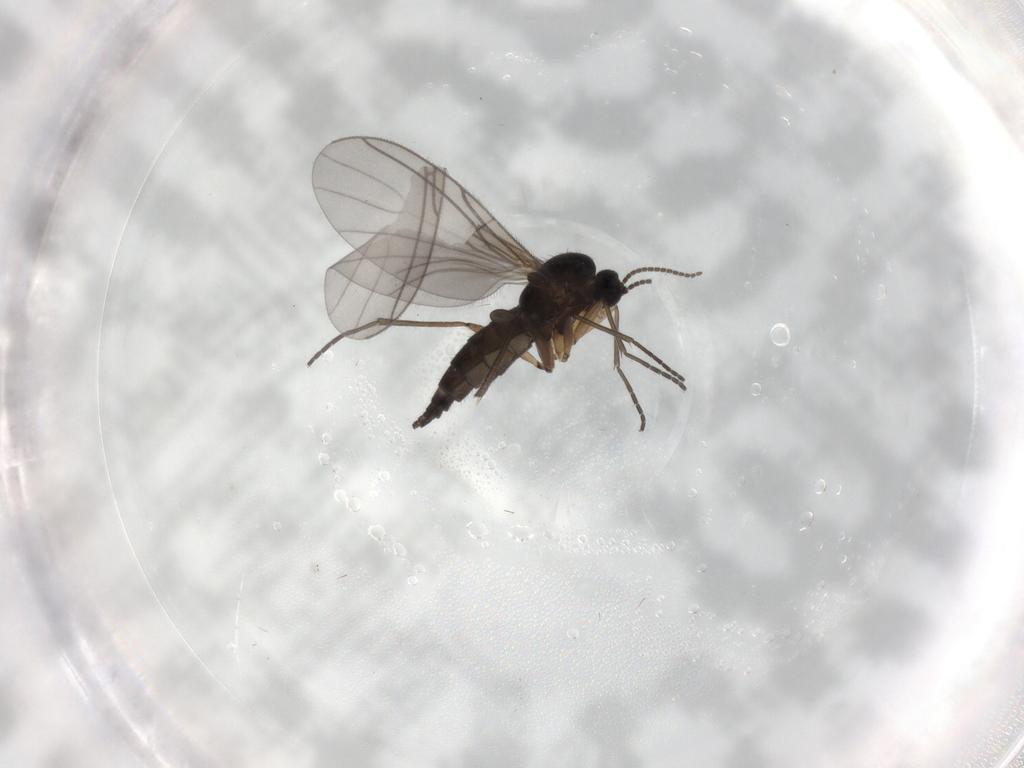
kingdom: Animalia
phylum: Arthropoda
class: Insecta
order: Diptera
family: Sciaridae
